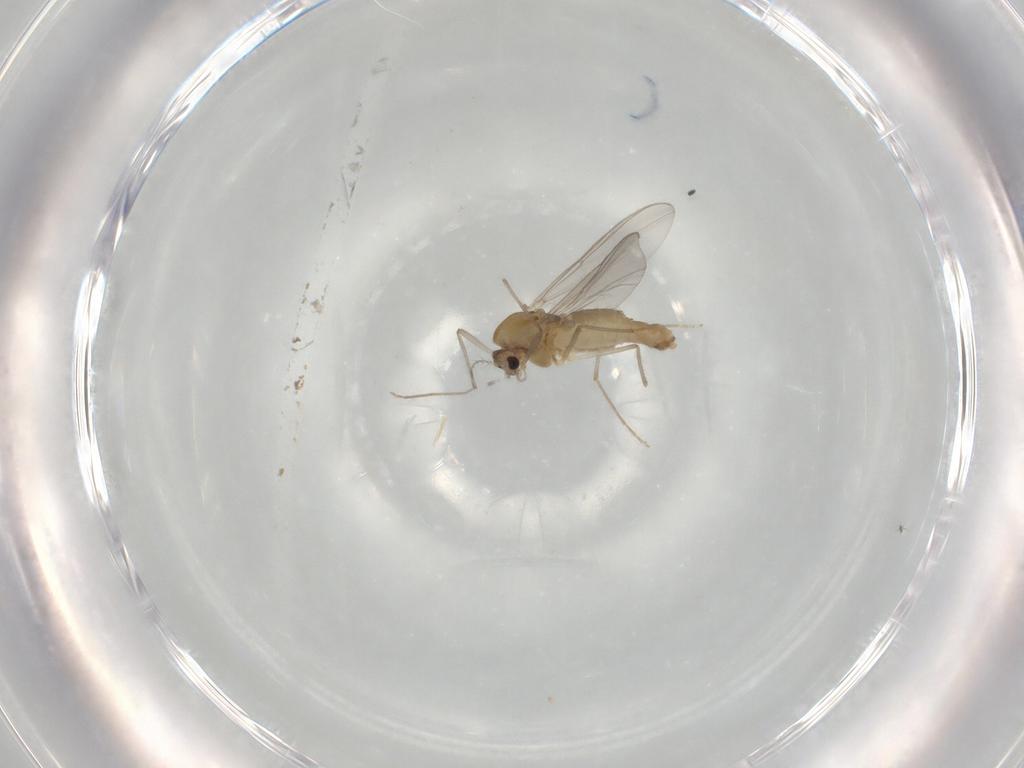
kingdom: Animalia
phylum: Arthropoda
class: Insecta
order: Diptera
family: Chironomidae
